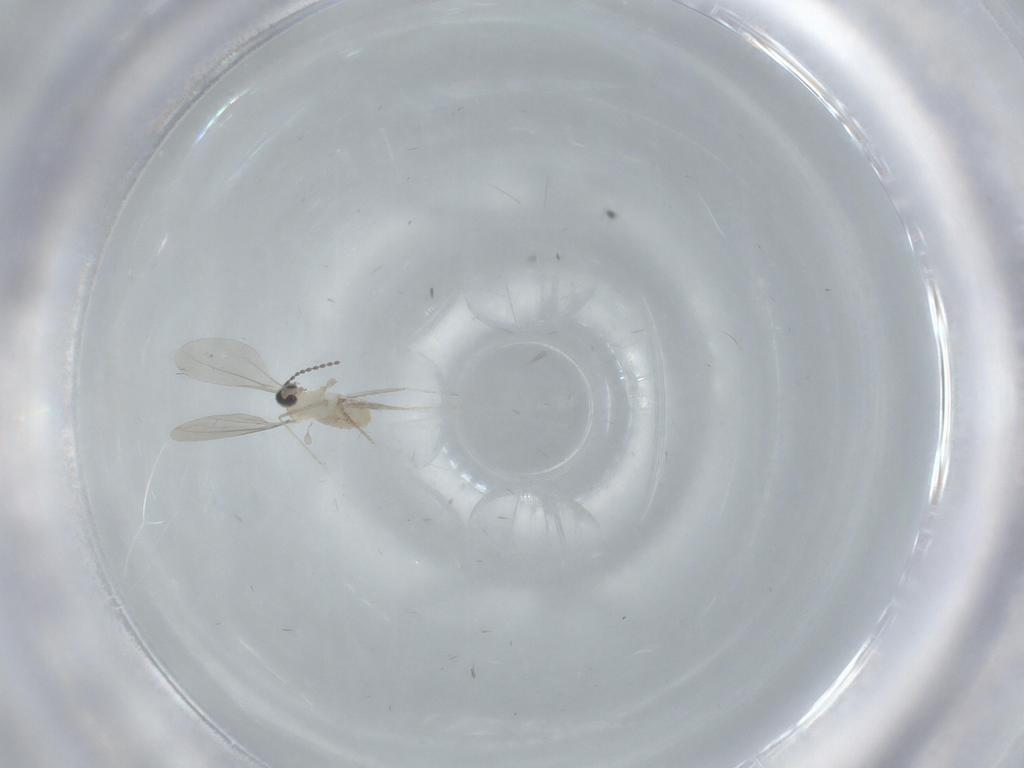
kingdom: Animalia
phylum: Arthropoda
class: Insecta
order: Diptera
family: Cecidomyiidae
